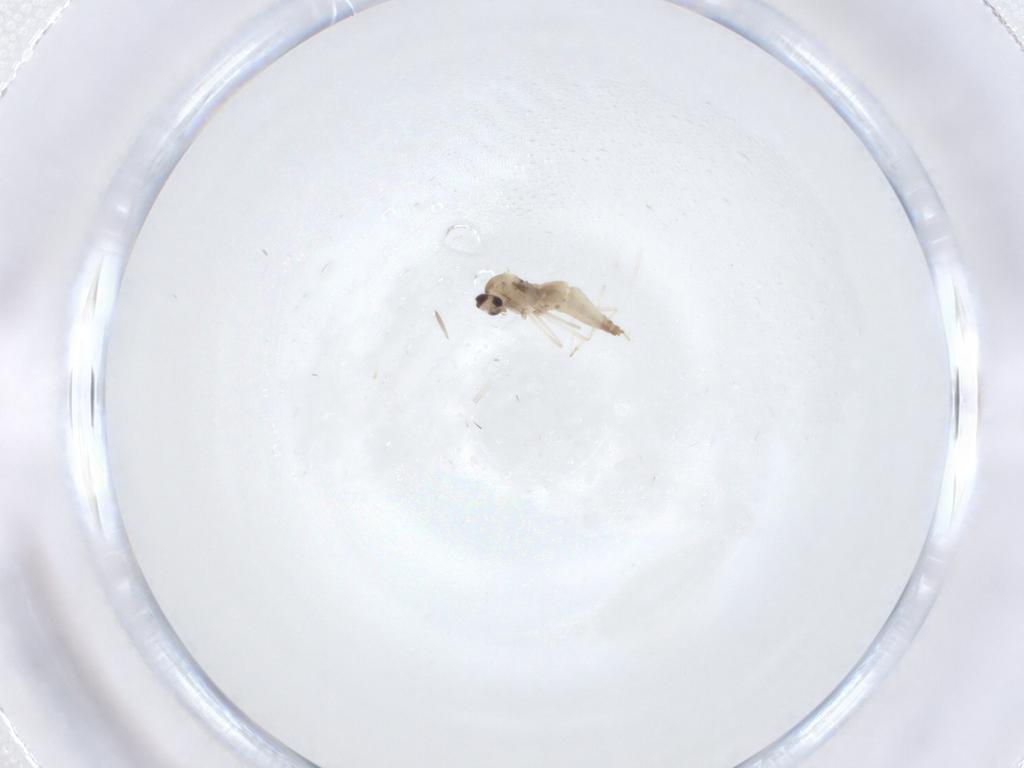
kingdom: Animalia
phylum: Arthropoda
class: Insecta
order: Diptera
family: Cecidomyiidae
